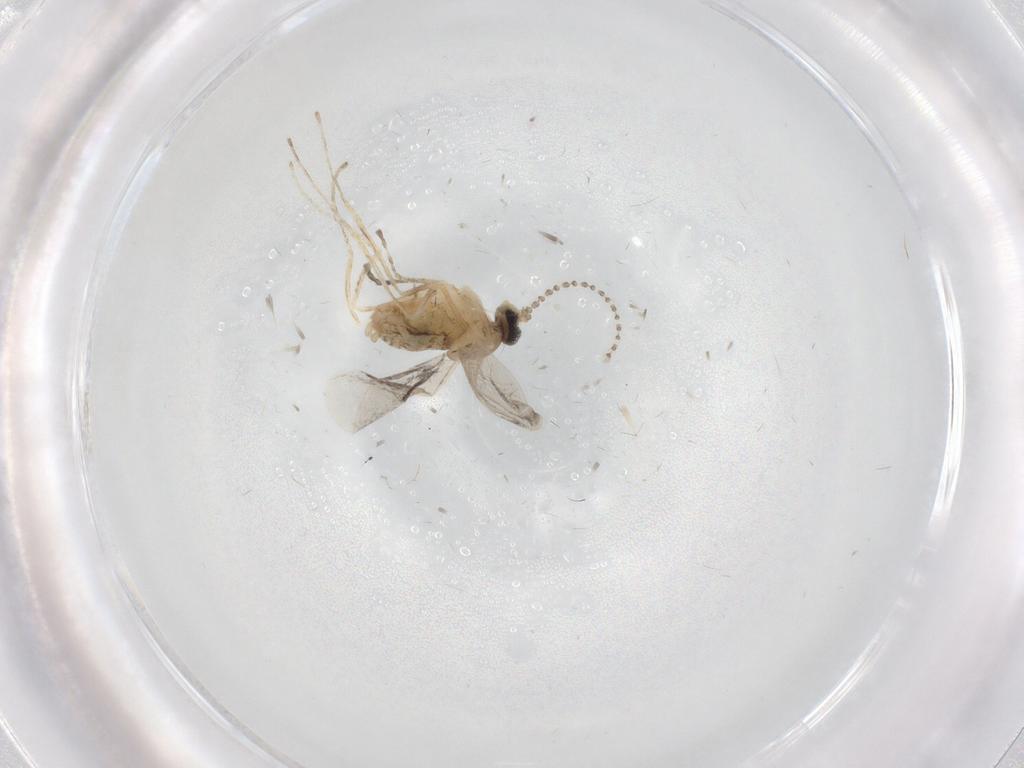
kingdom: Animalia
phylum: Arthropoda
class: Insecta
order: Diptera
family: Cecidomyiidae
